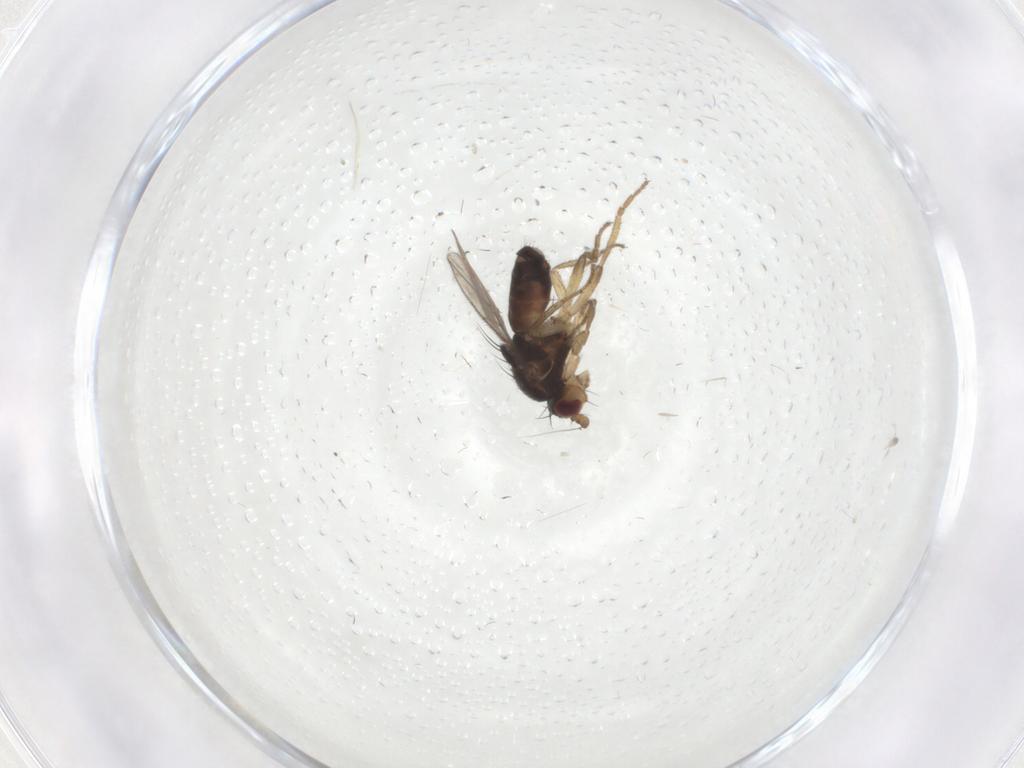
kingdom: Animalia
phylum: Arthropoda
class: Insecta
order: Diptera
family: Sphaeroceridae
